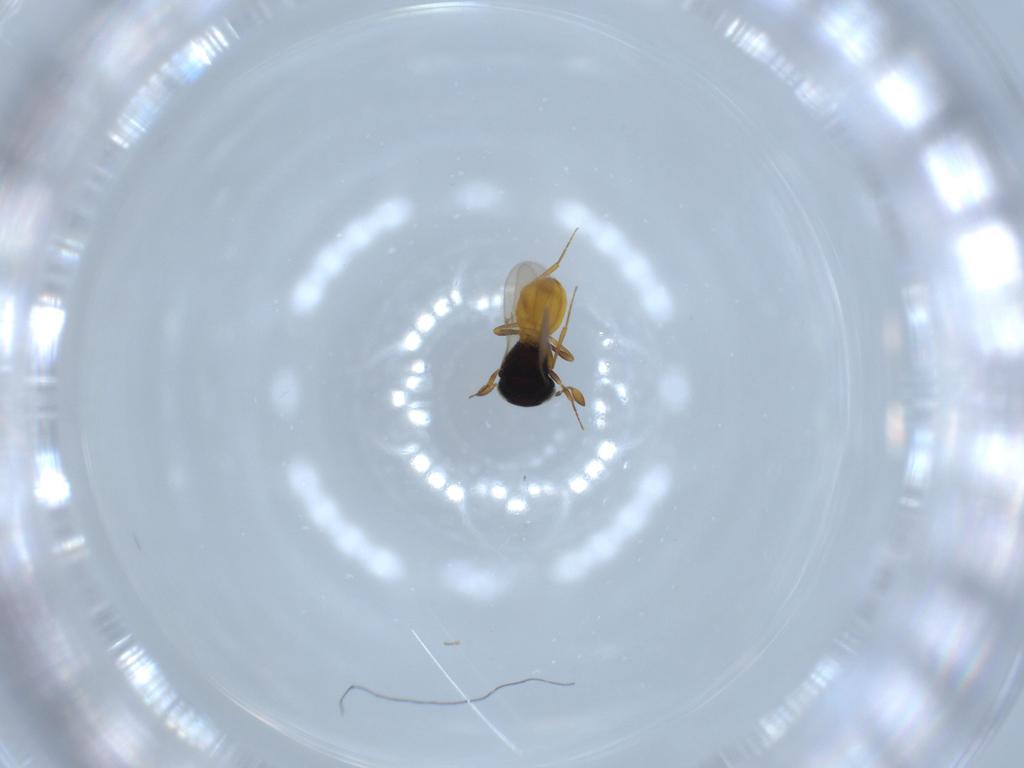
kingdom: Animalia
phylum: Arthropoda
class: Insecta
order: Hymenoptera
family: Scelionidae
